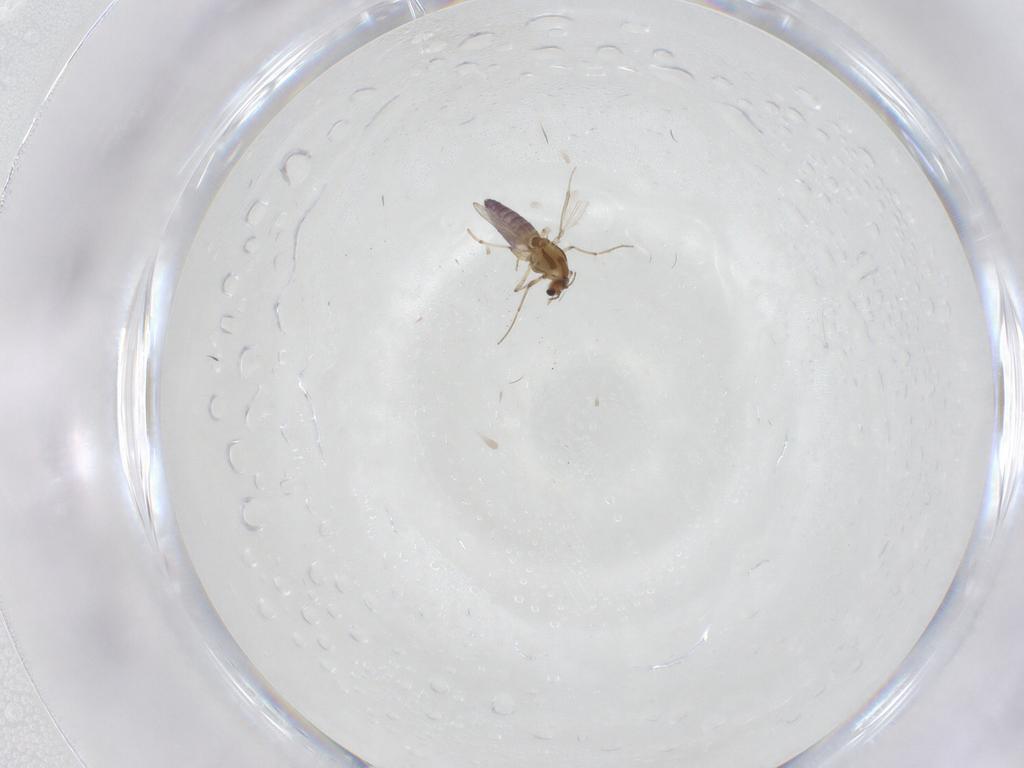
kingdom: Animalia
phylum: Arthropoda
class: Insecta
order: Diptera
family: Phoridae
